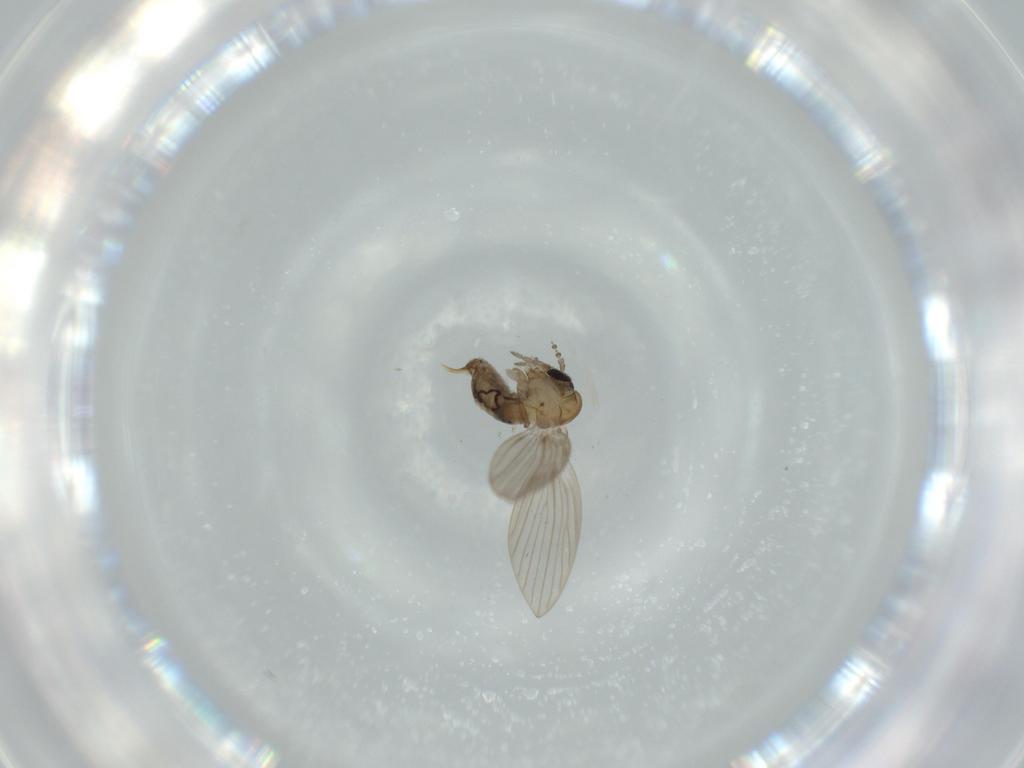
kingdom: Animalia
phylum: Arthropoda
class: Insecta
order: Diptera
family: Psychodidae
